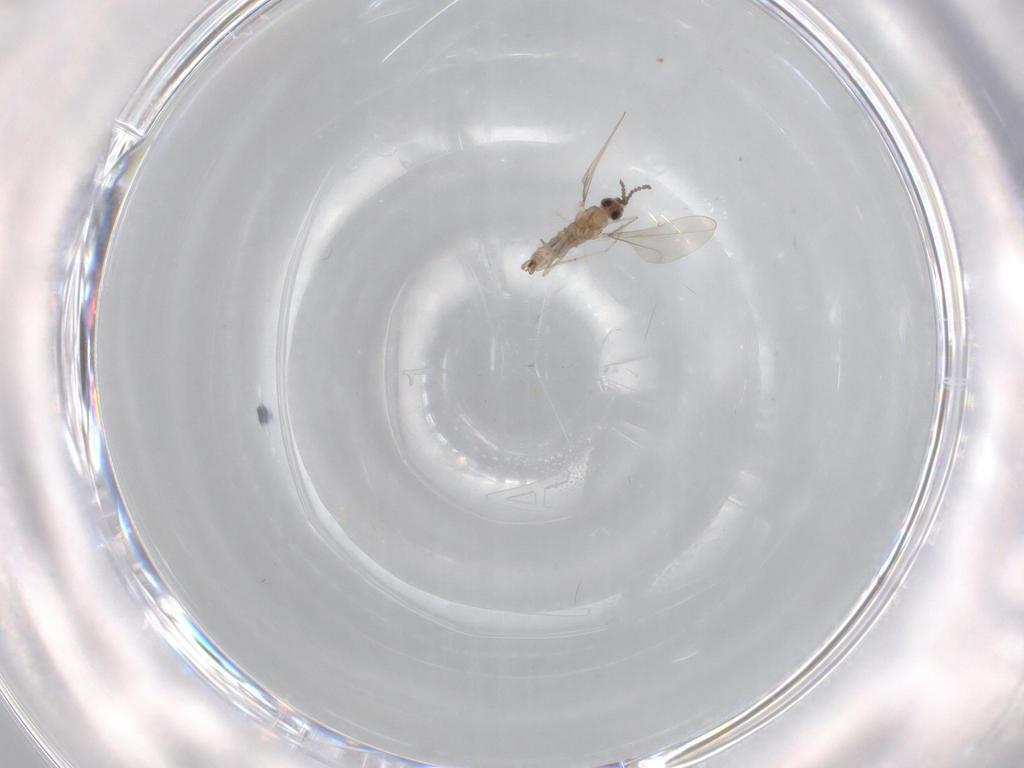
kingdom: Animalia
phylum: Arthropoda
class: Insecta
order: Diptera
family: Cecidomyiidae
